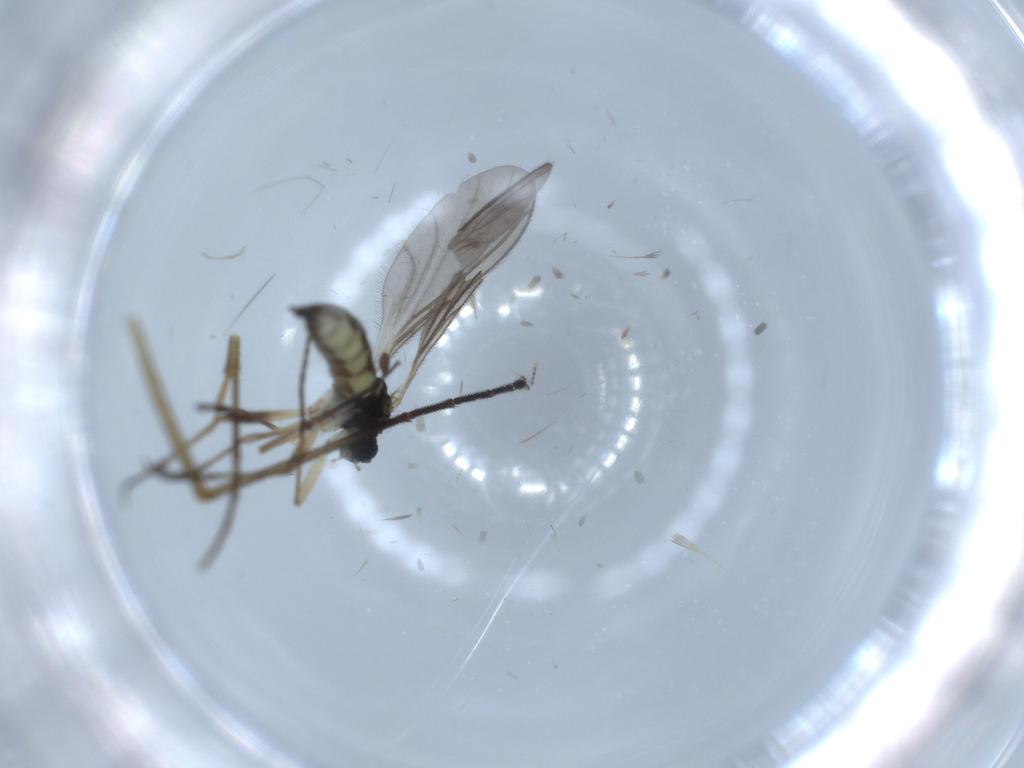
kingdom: Animalia
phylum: Arthropoda
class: Insecta
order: Diptera
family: Sciaridae
